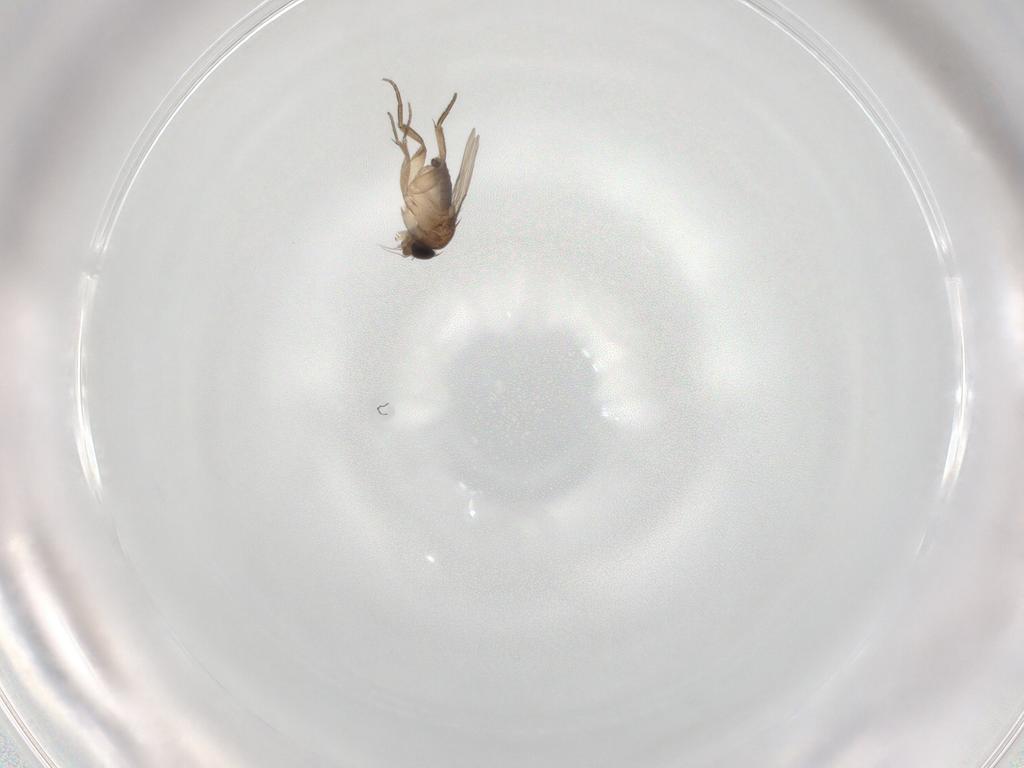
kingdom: Animalia
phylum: Arthropoda
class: Insecta
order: Diptera
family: Phoridae
